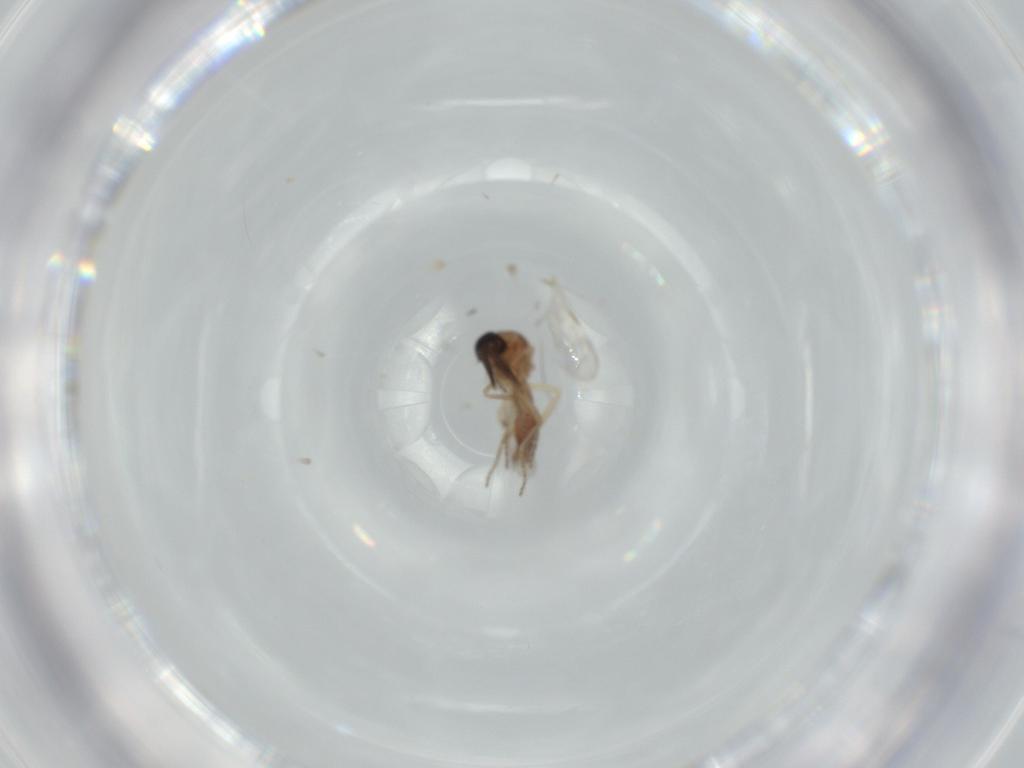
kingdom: Animalia
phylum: Arthropoda
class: Insecta
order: Diptera
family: Ceratopogonidae
